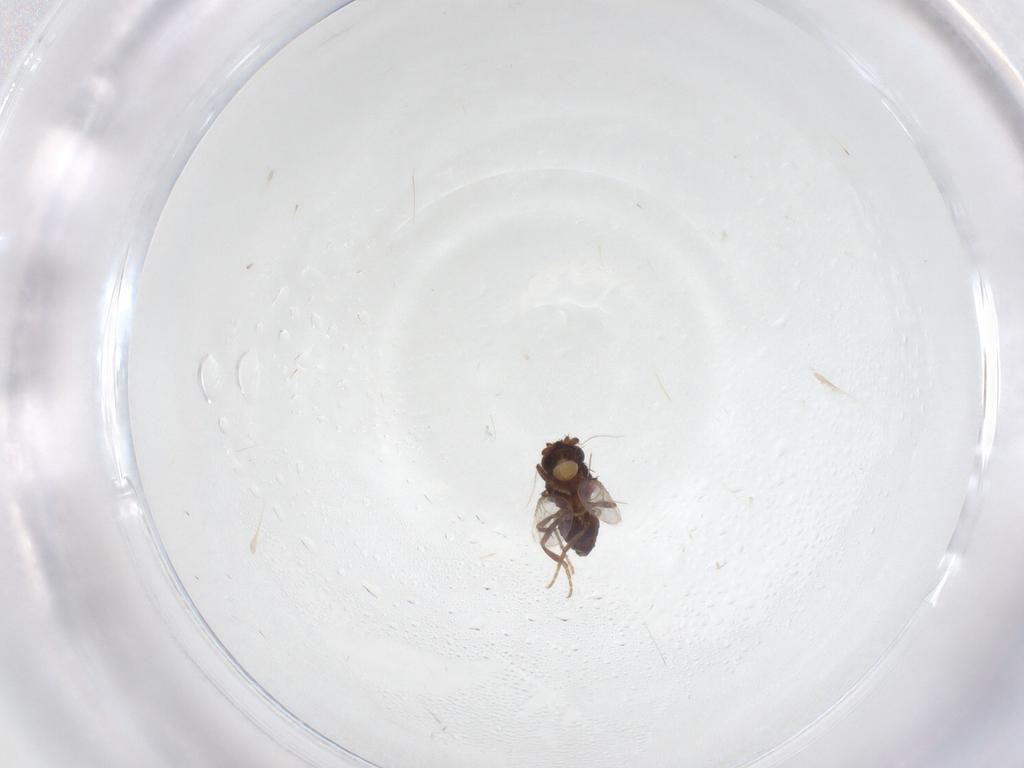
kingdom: Animalia
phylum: Arthropoda
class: Insecta
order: Diptera
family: Sphaeroceridae
